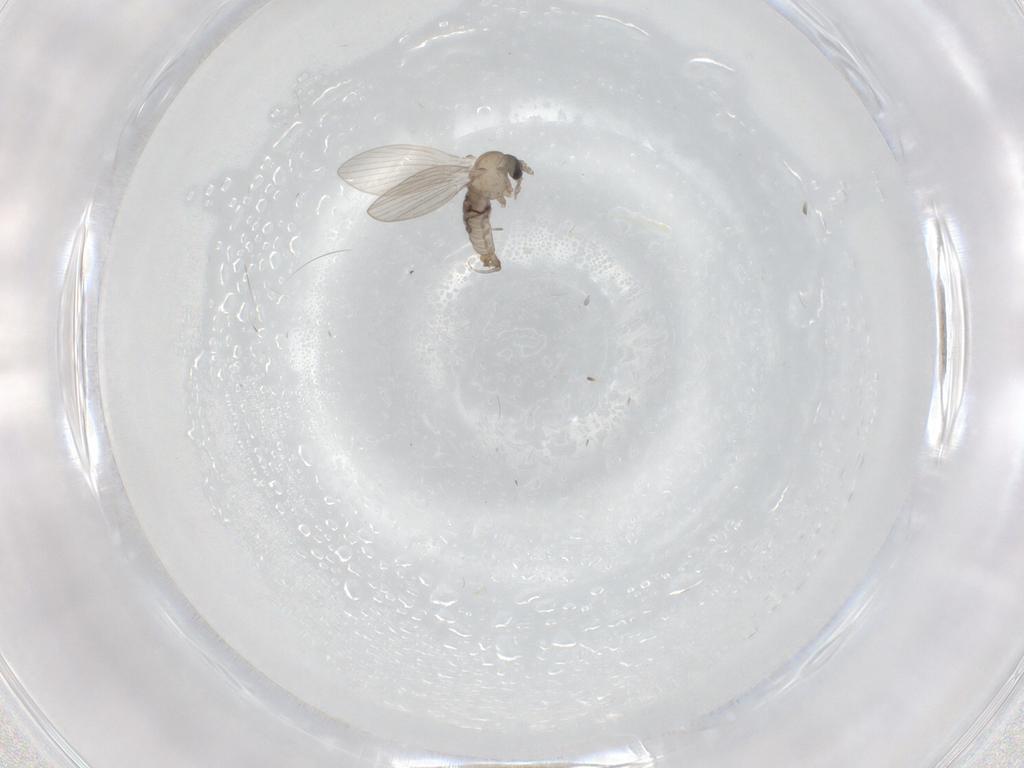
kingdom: Animalia
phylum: Arthropoda
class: Insecta
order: Diptera
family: Psychodidae
